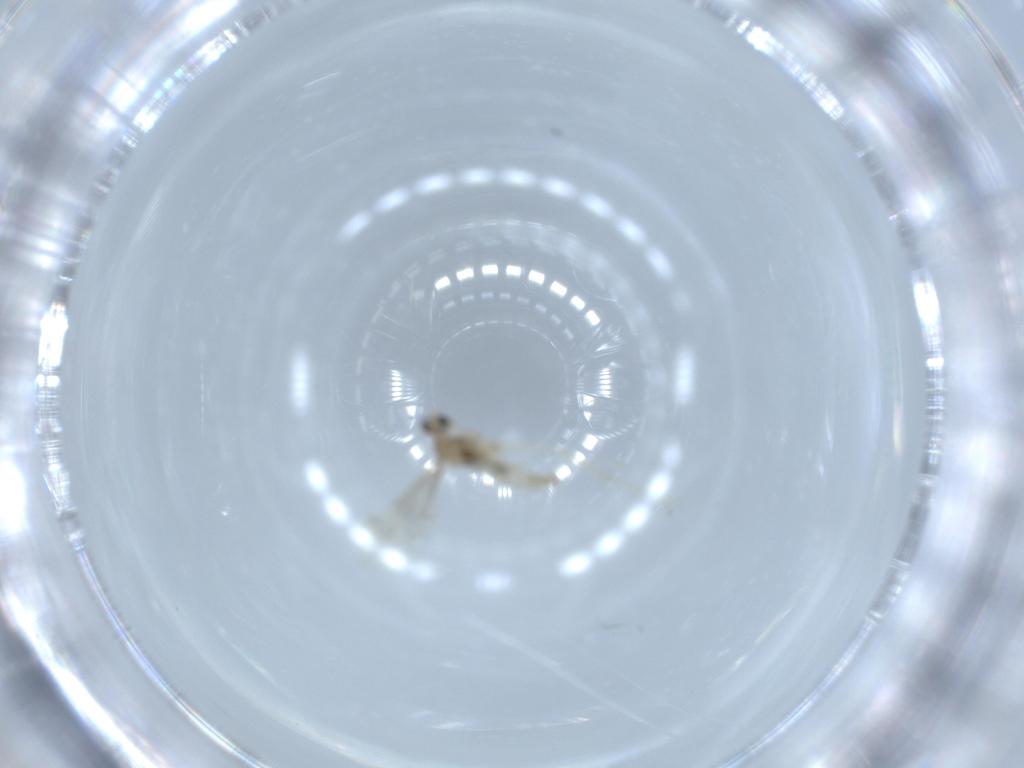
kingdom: Animalia
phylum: Arthropoda
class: Insecta
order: Diptera
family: Cecidomyiidae
